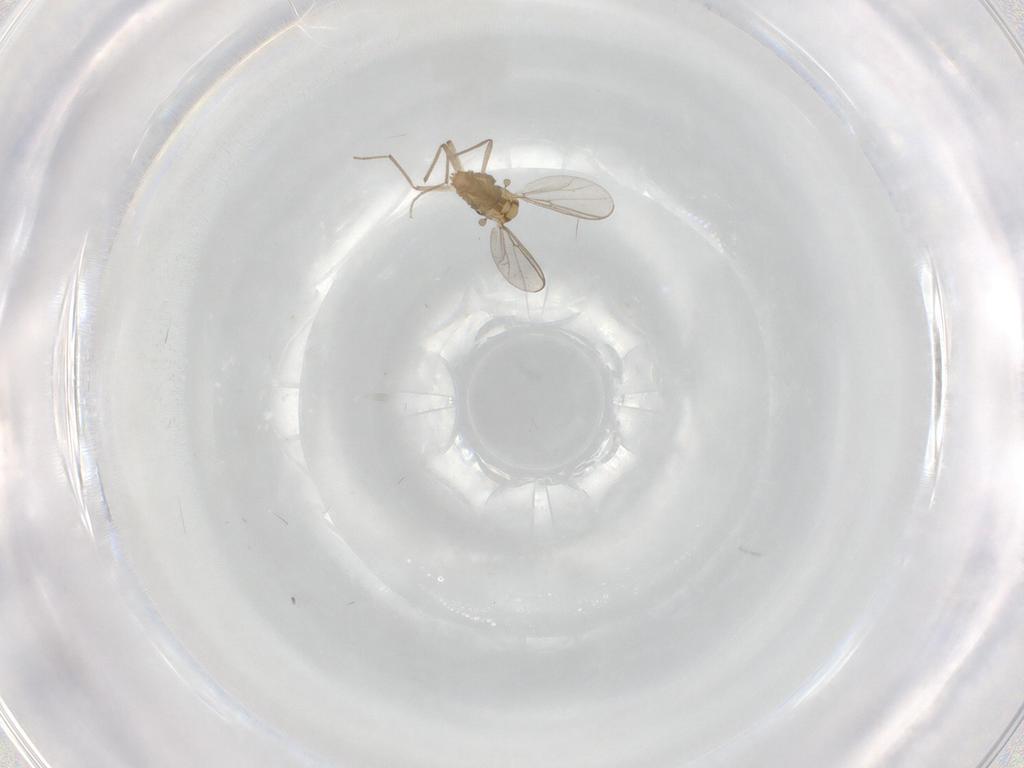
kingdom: Animalia
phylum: Arthropoda
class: Insecta
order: Diptera
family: Chironomidae
